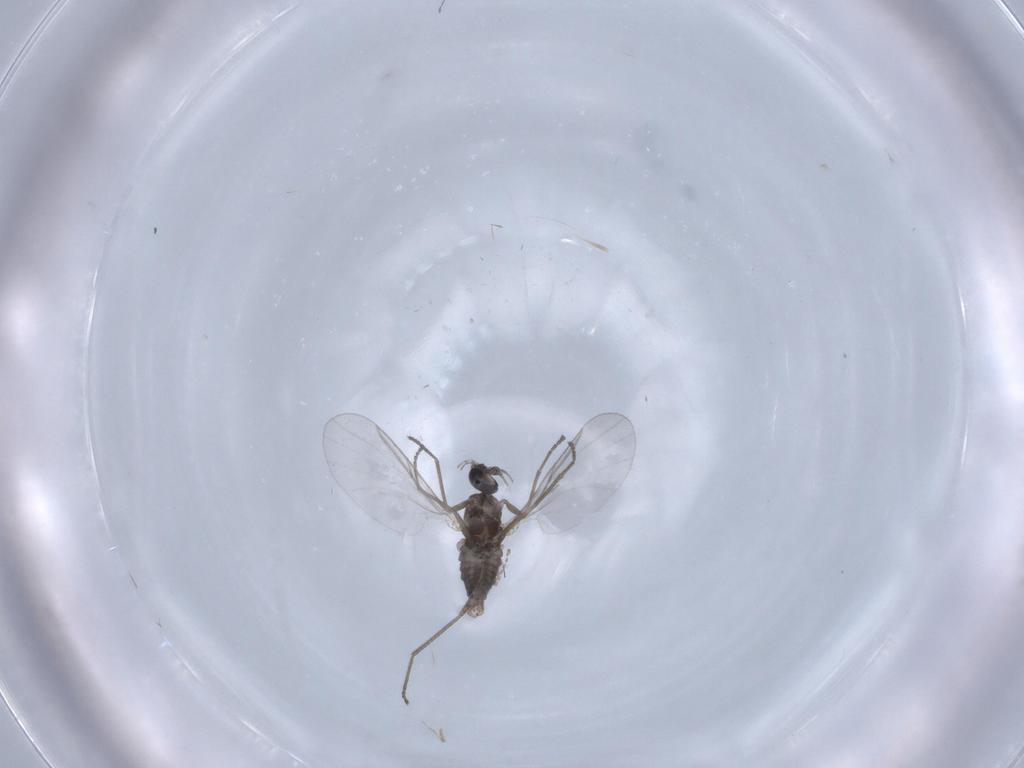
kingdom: Animalia
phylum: Arthropoda
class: Insecta
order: Diptera
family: Cecidomyiidae
